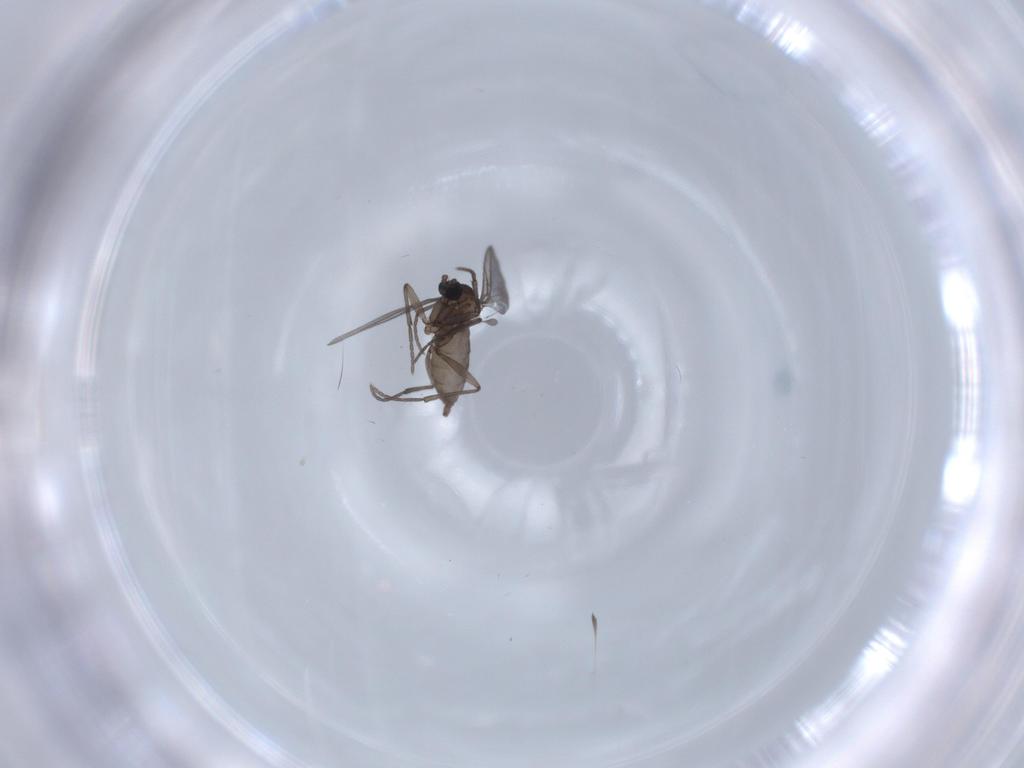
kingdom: Animalia
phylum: Arthropoda
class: Insecta
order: Diptera
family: Sciaridae
